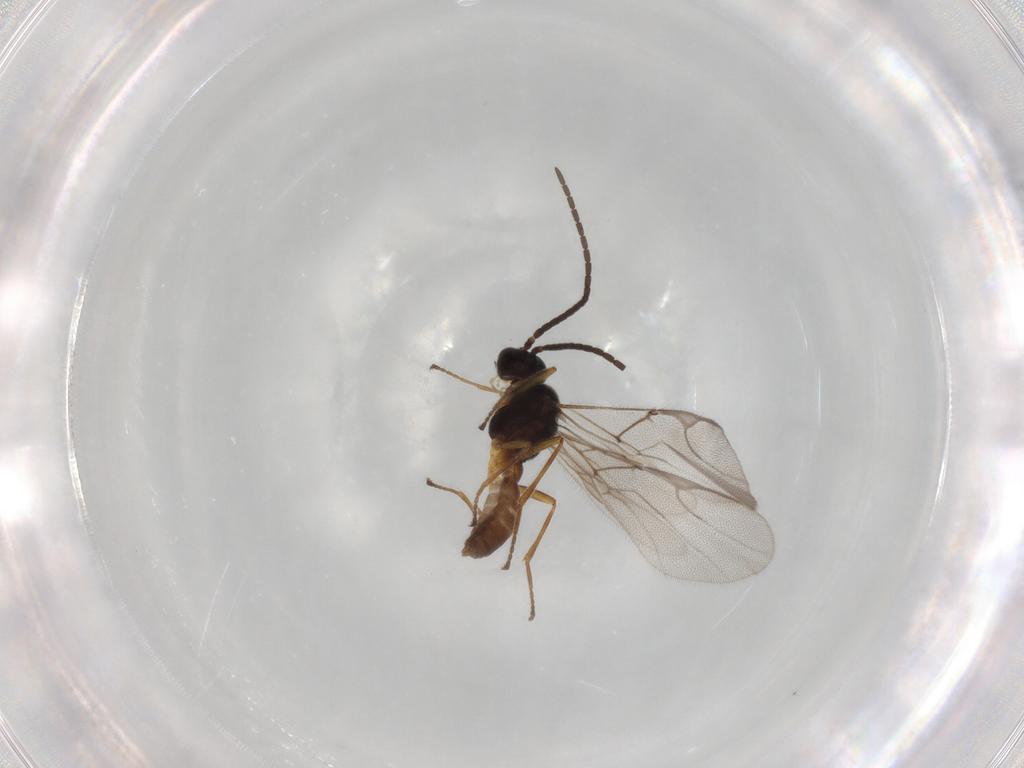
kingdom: Animalia
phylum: Arthropoda
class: Insecta
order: Hymenoptera
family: Braconidae
